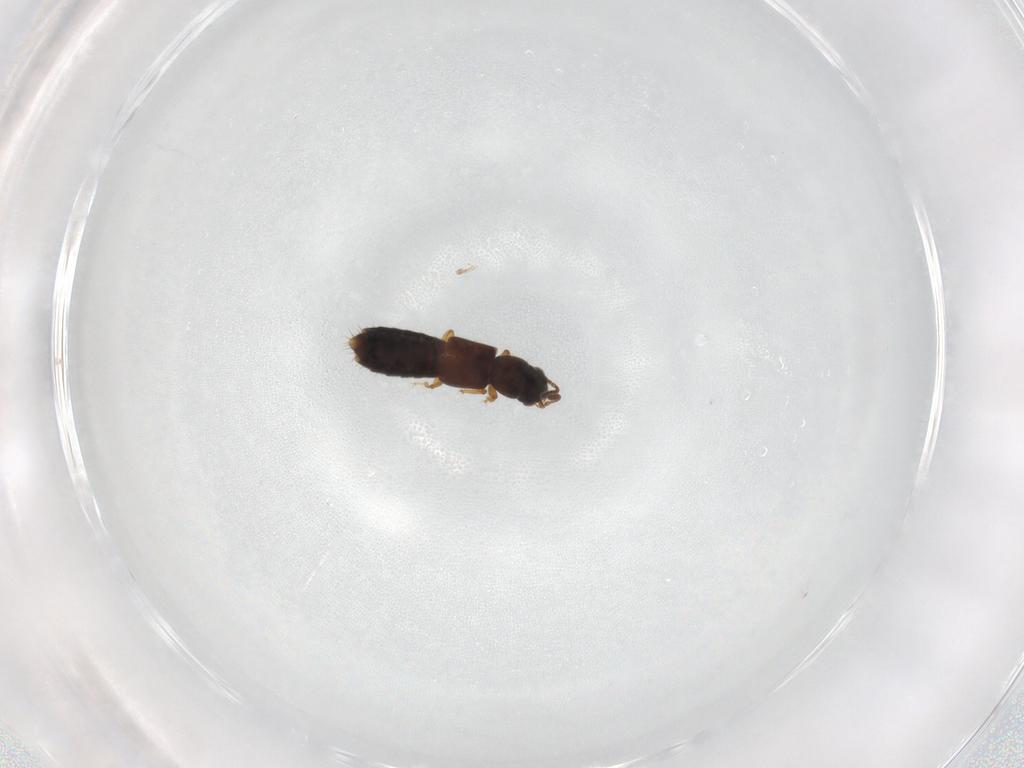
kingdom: Animalia
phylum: Arthropoda
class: Insecta
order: Coleoptera
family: Staphylinidae
